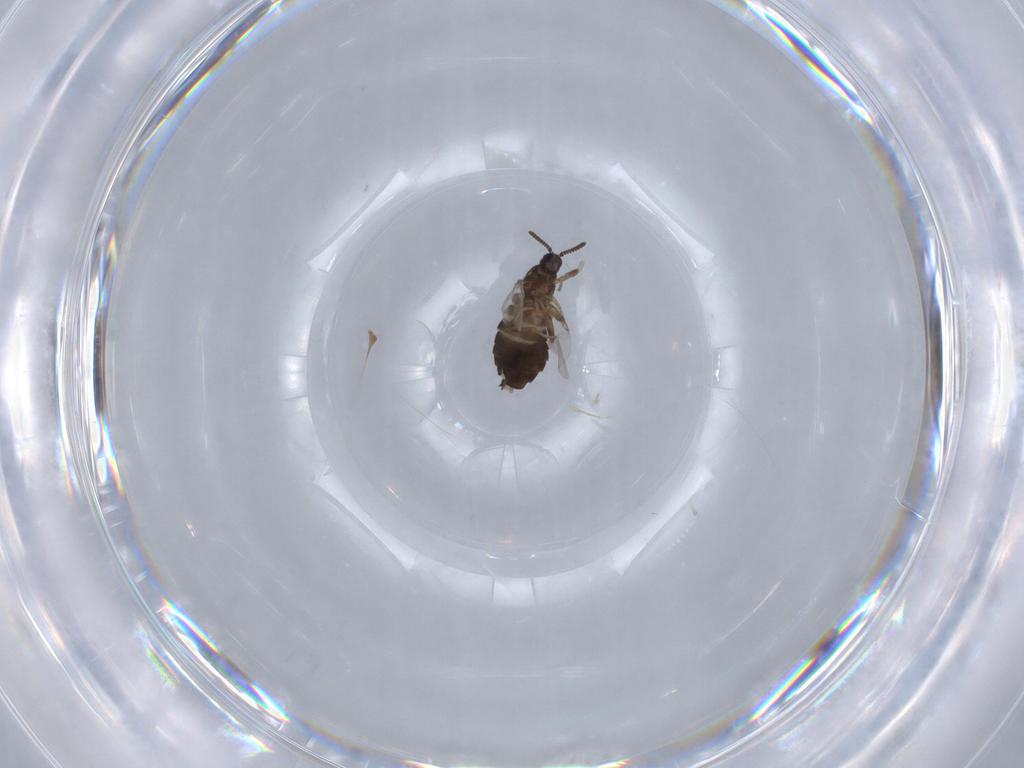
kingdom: Animalia
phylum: Arthropoda
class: Insecta
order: Diptera
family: Scatopsidae
